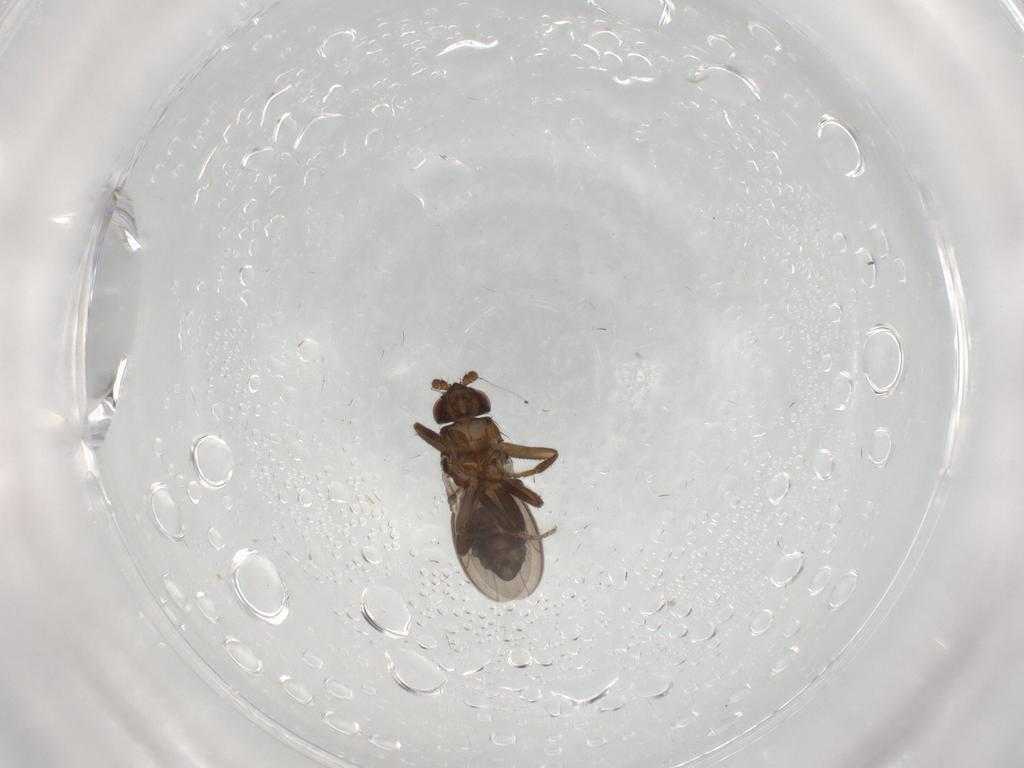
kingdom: Animalia
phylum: Arthropoda
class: Insecta
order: Diptera
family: Sphaeroceridae
